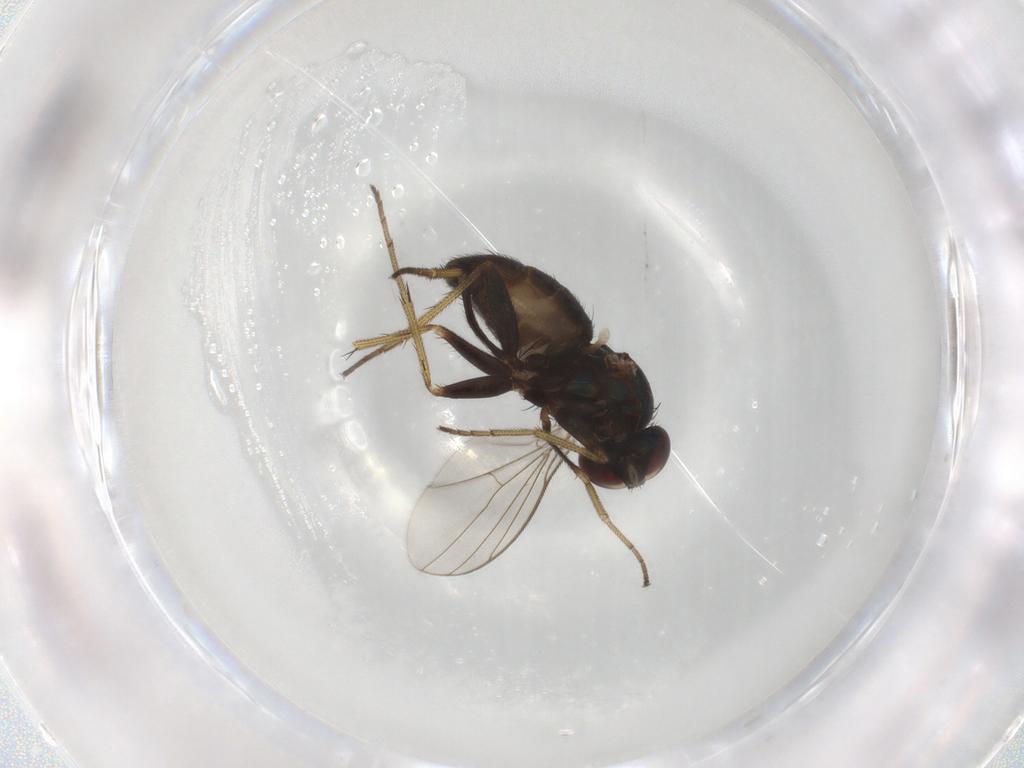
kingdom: Animalia
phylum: Arthropoda
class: Insecta
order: Diptera
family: Dolichopodidae
